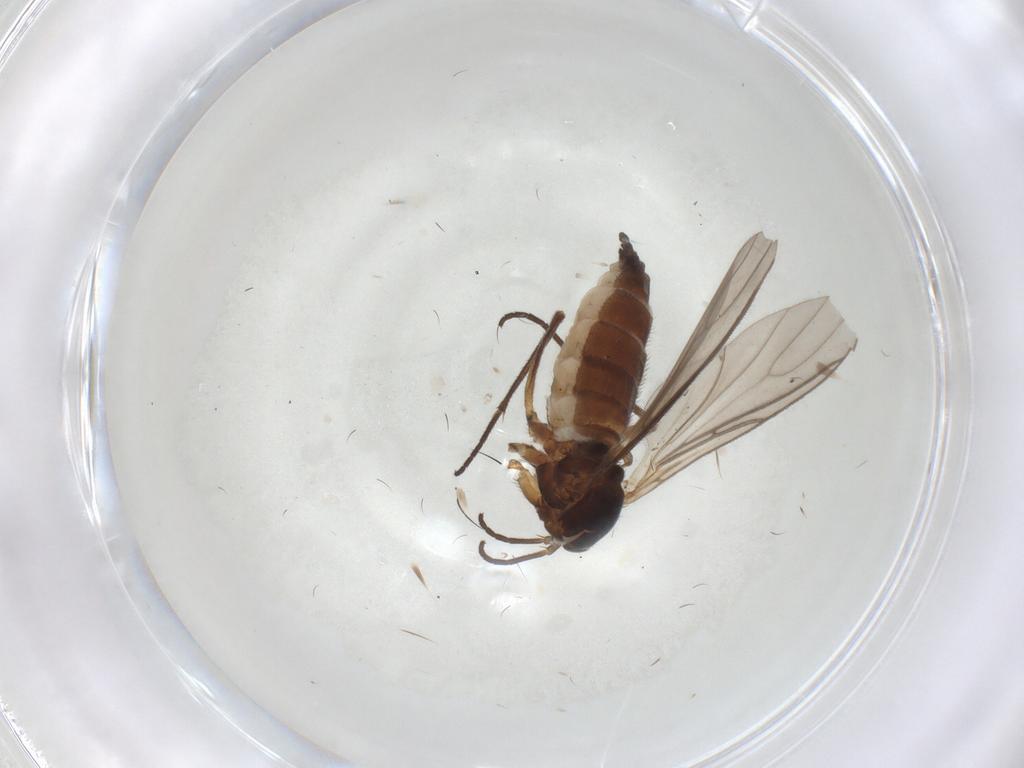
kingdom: Animalia
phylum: Arthropoda
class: Insecta
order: Diptera
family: Sciaridae
